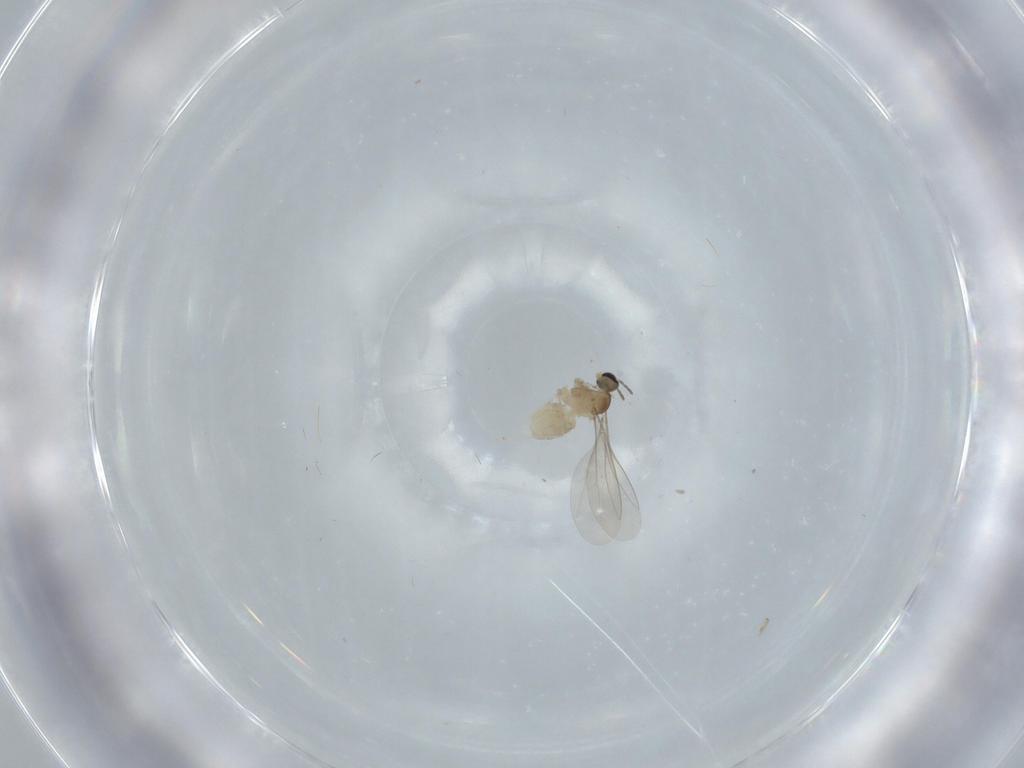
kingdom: Animalia
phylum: Arthropoda
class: Insecta
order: Diptera
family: Cecidomyiidae
